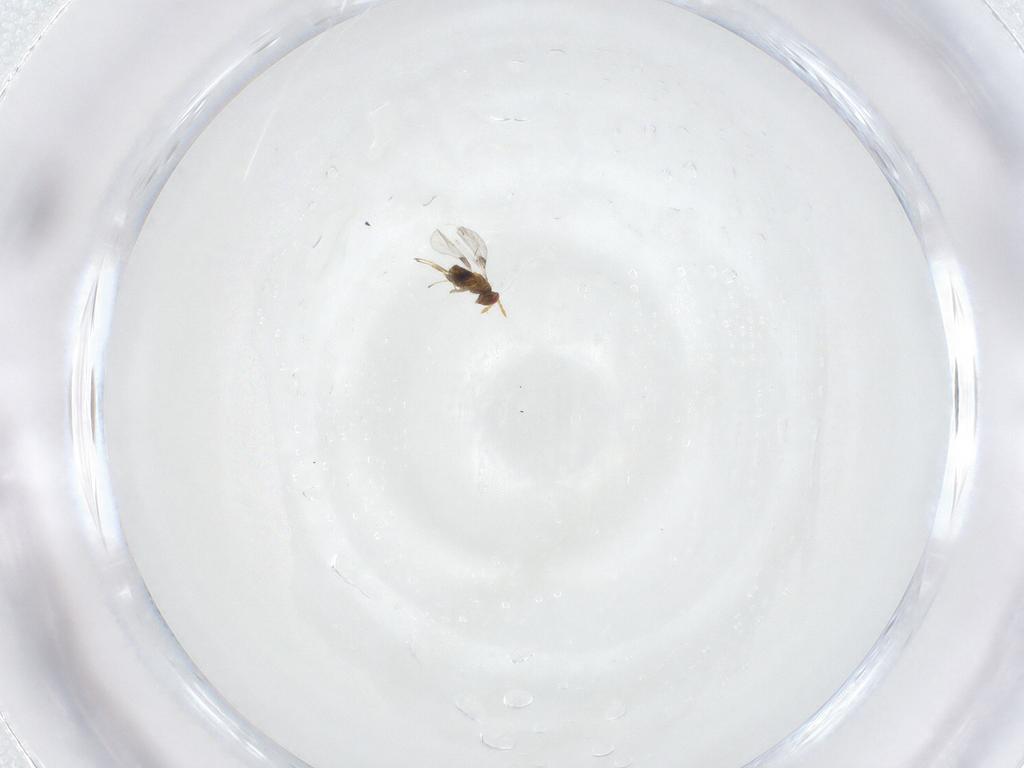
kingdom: Animalia
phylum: Arthropoda
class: Insecta
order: Hymenoptera
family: Trichogrammatidae
